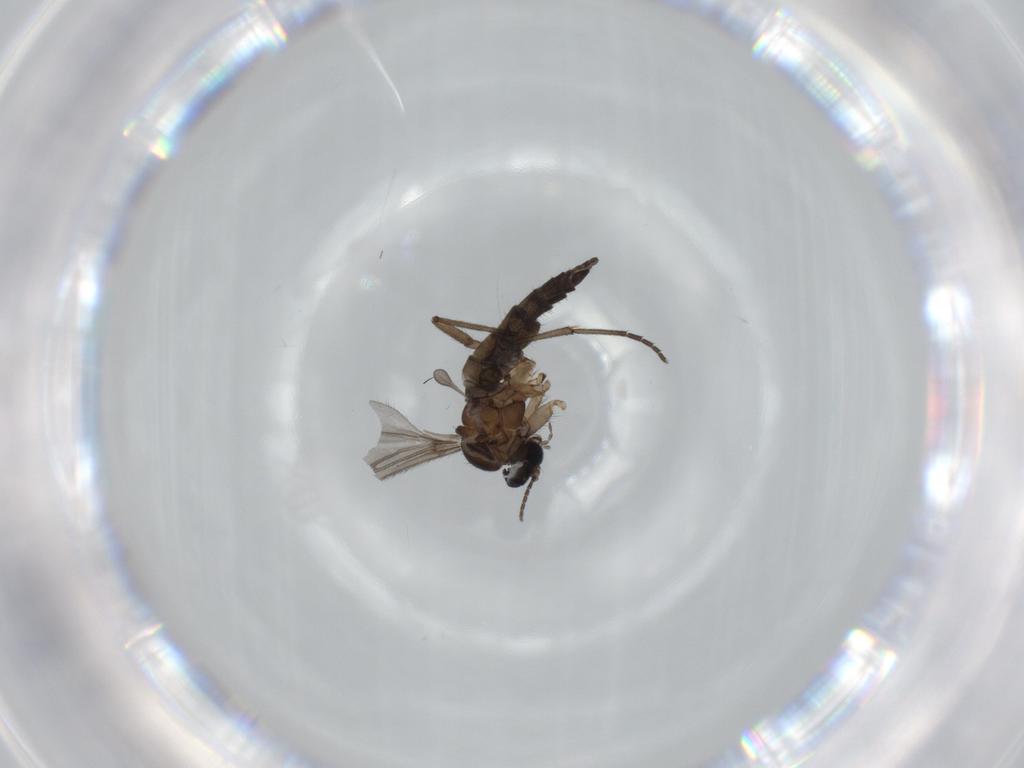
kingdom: Animalia
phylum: Arthropoda
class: Insecta
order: Diptera
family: Sciaridae
